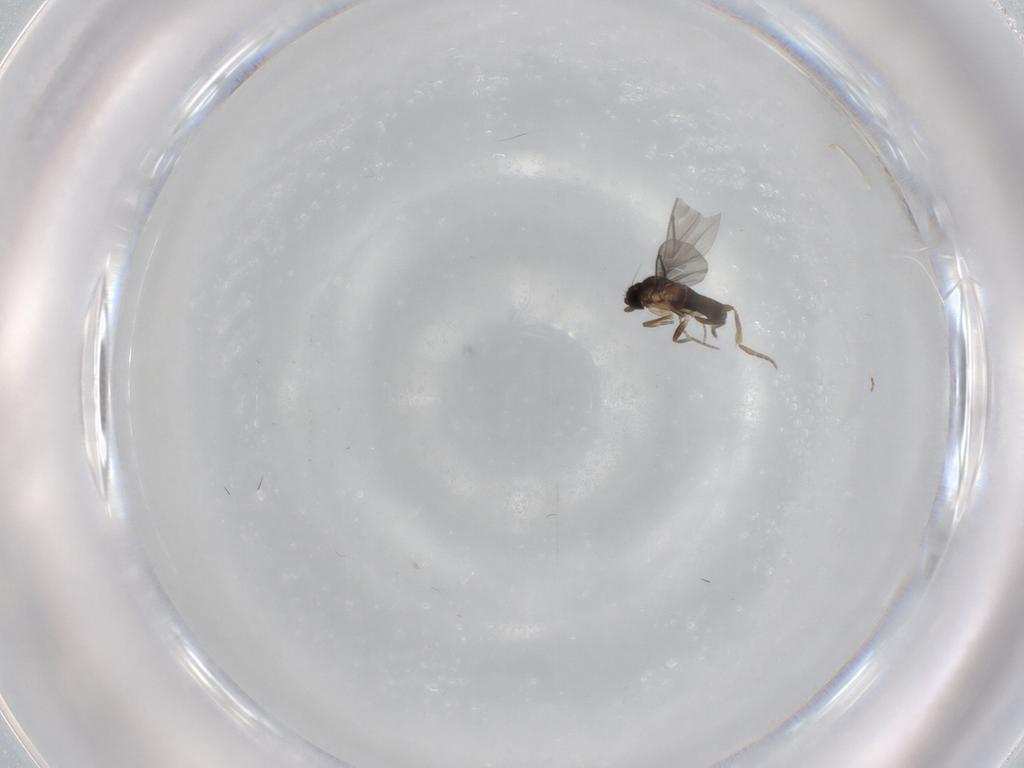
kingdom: Animalia
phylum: Arthropoda
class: Insecta
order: Diptera
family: Cecidomyiidae
